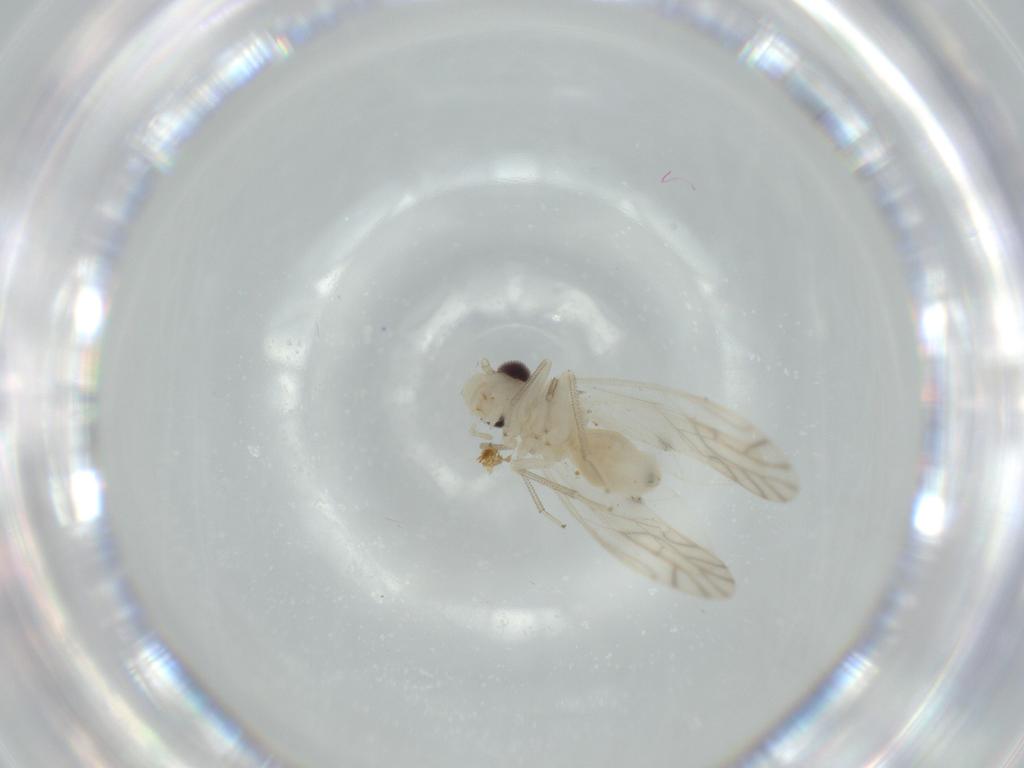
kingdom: Animalia
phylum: Arthropoda
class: Insecta
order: Psocodea
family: Caeciliusidae
